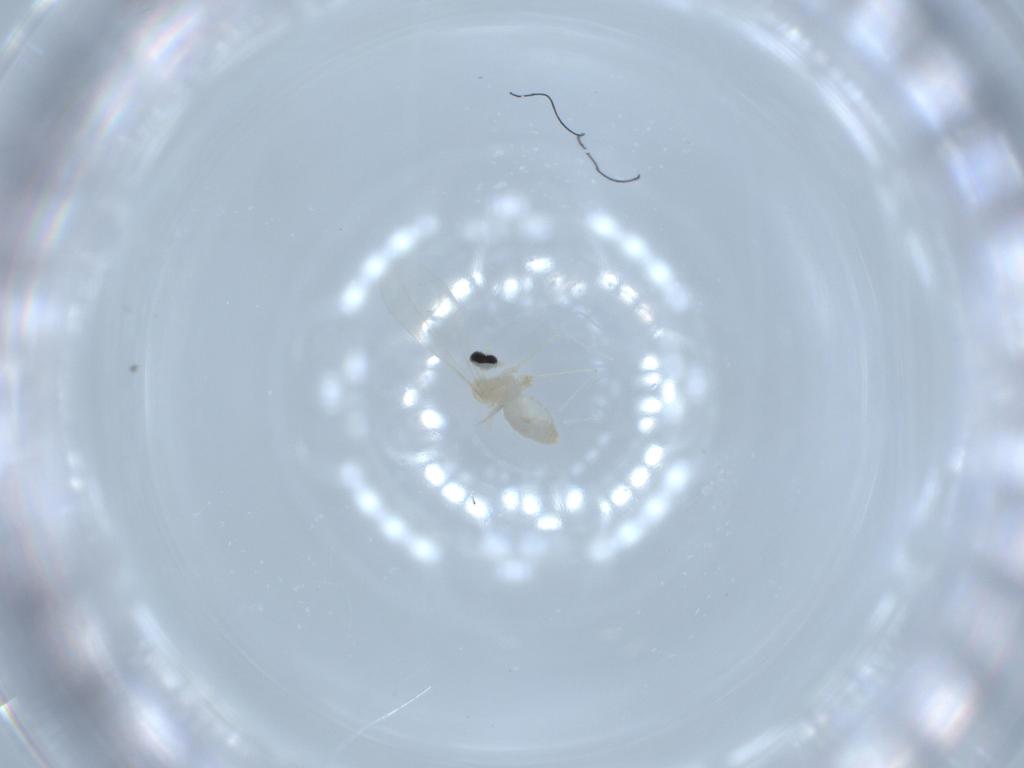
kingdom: Animalia
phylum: Arthropoda
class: Insecta
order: Diptera
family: Cecidomyiidae
